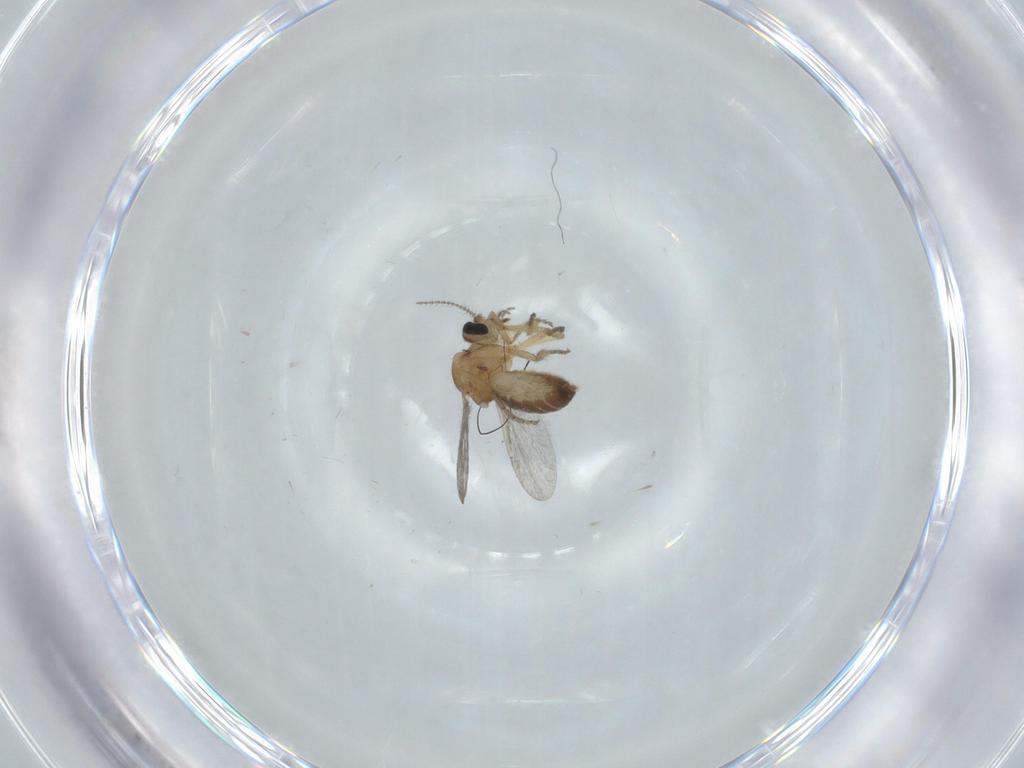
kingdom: Animalia
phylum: Arthropoda
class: Insecta
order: Diptera
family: Ceratopogonidae
